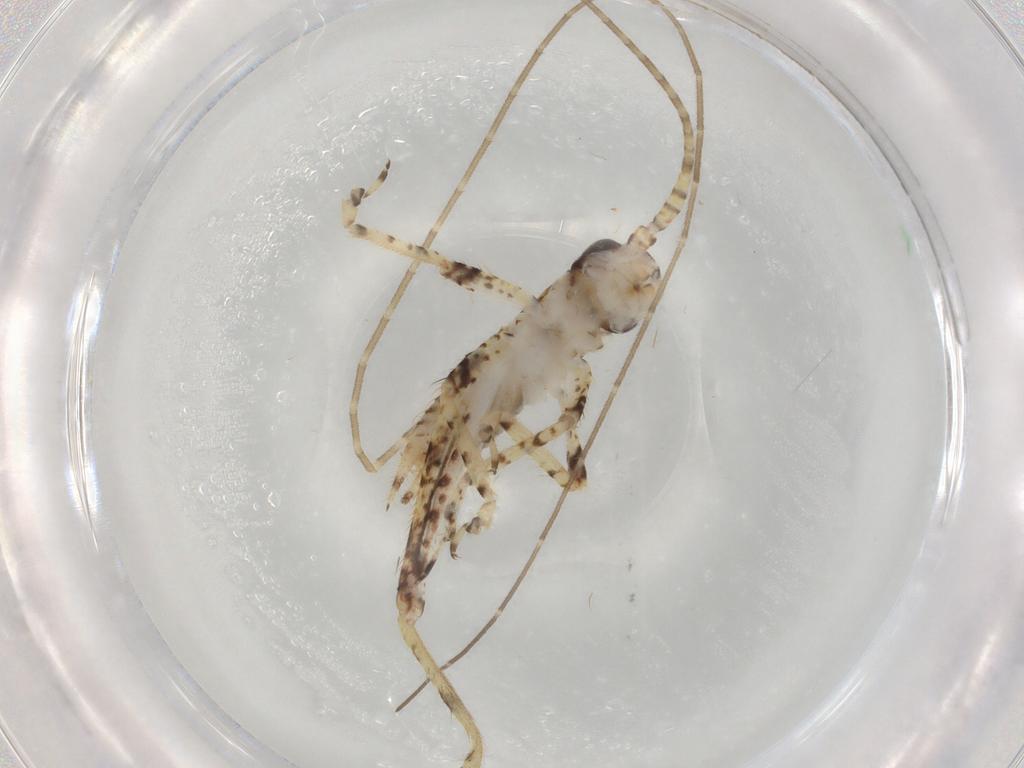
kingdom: Animalia
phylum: Arthropoda
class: Insecta
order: Orthoptera
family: Gryllidae
